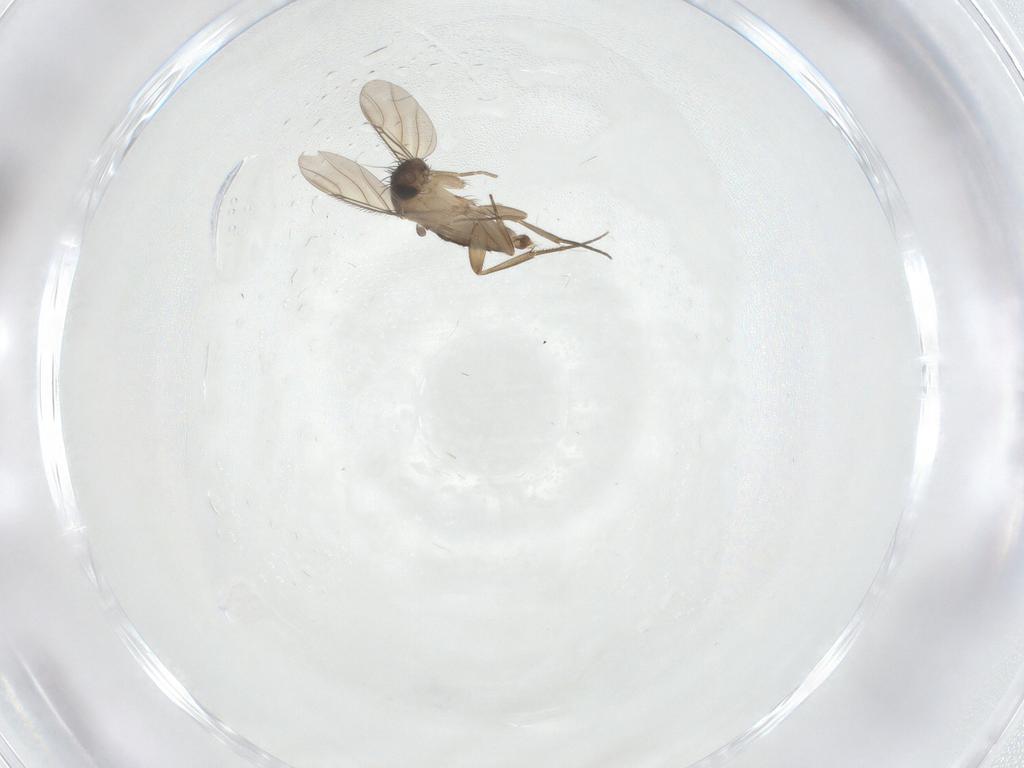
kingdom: Animalia
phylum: Arthropoda
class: Insecta
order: Diptera
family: Phoridae
